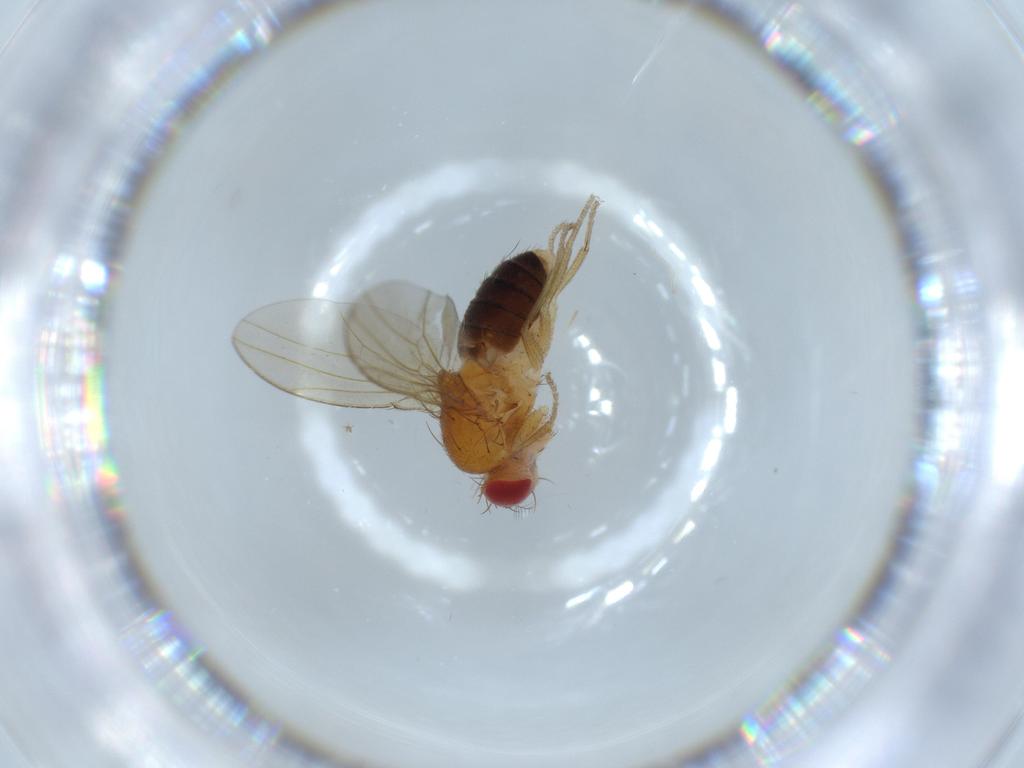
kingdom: Animalia
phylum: Arthropoda
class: Insecta
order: Diptera
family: Drosophilidae
